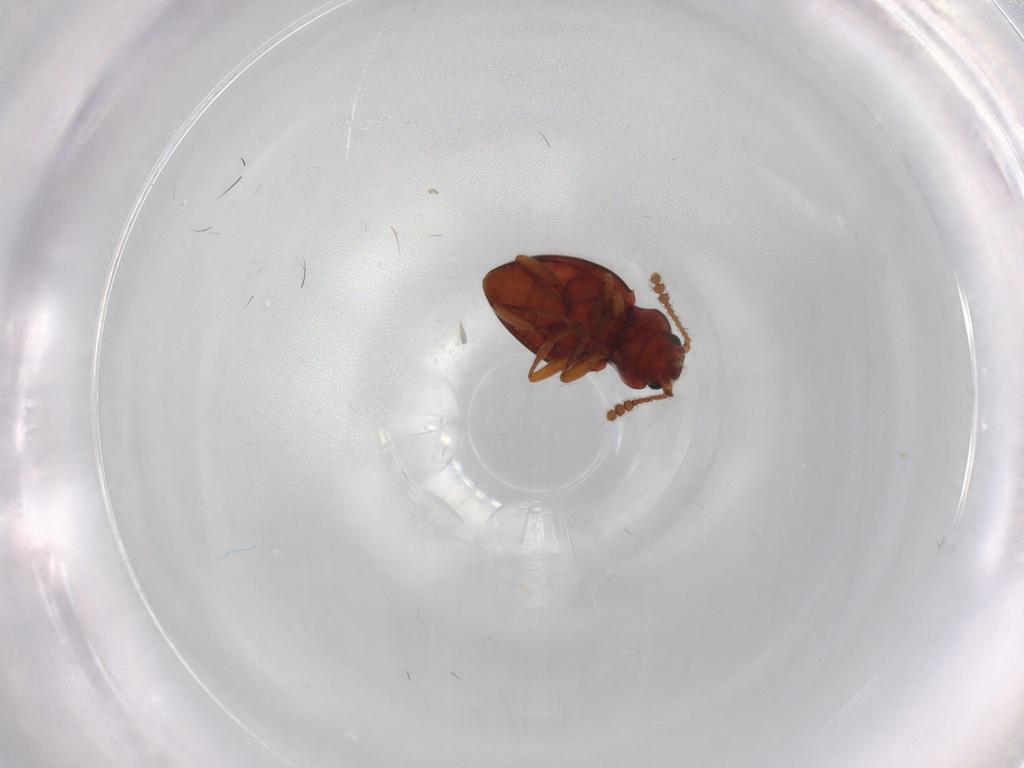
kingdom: Animalia
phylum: Arthropoda
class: Insecta
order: Coleoptera
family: Erotylidae
